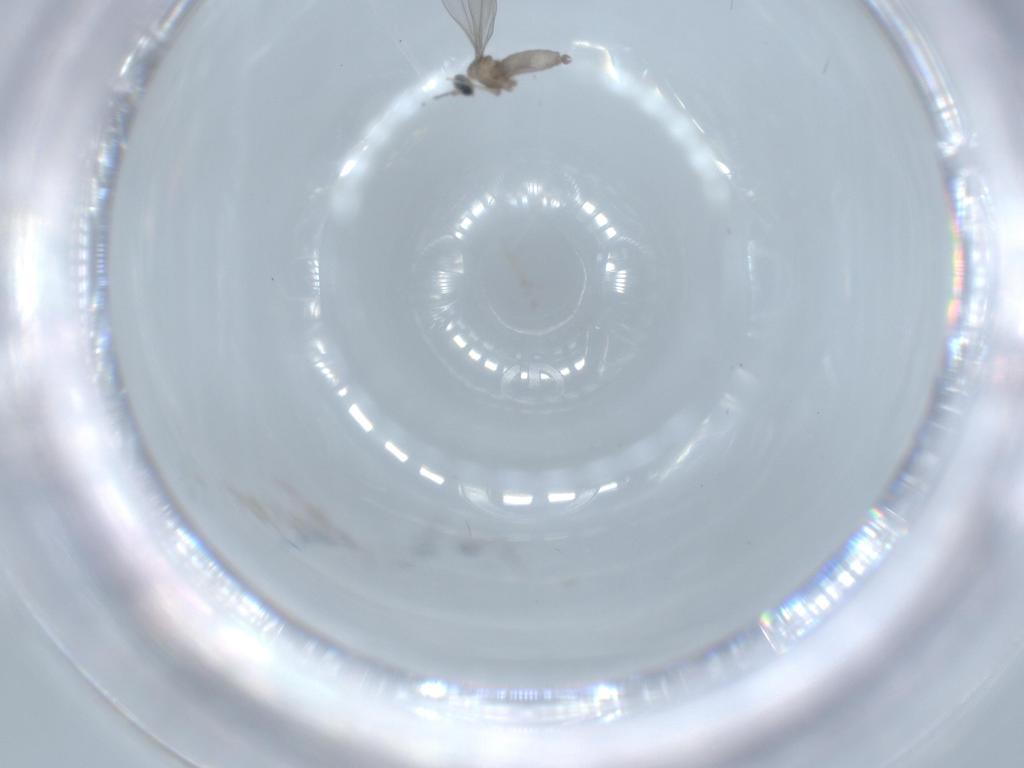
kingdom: Animalia
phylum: Arthropoda
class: Insecta
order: Diptera
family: Cecidomyiidae
